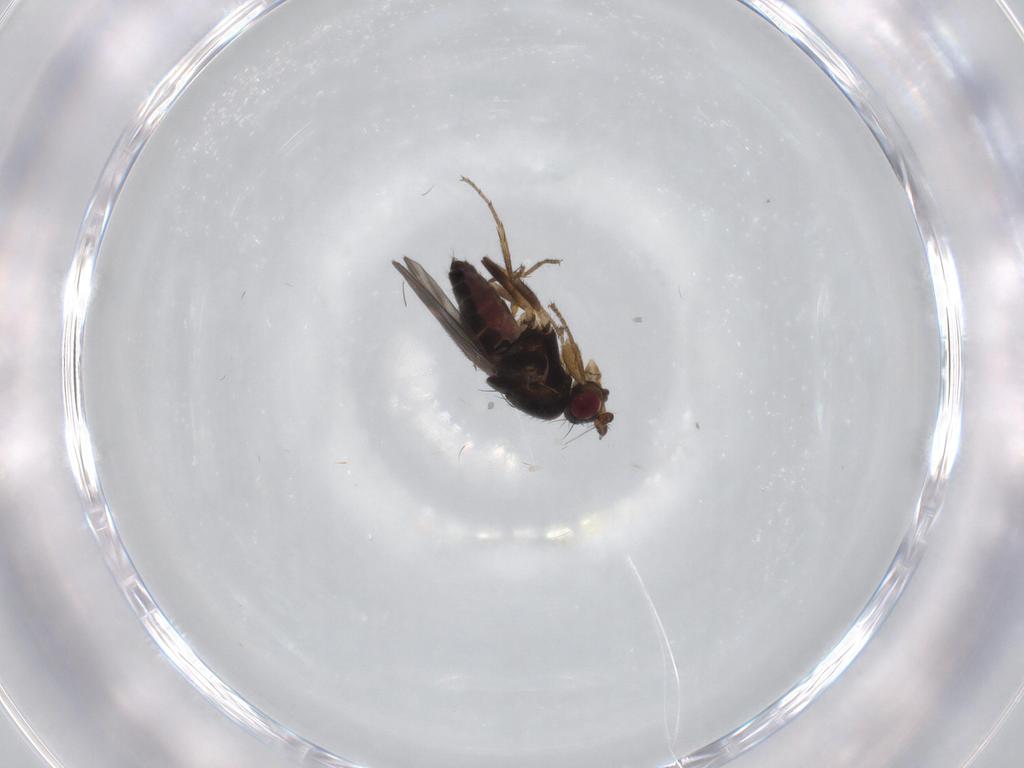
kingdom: Animalia
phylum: Arthropoda
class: Insecta
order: Diptera
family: Sphaeroceridae
